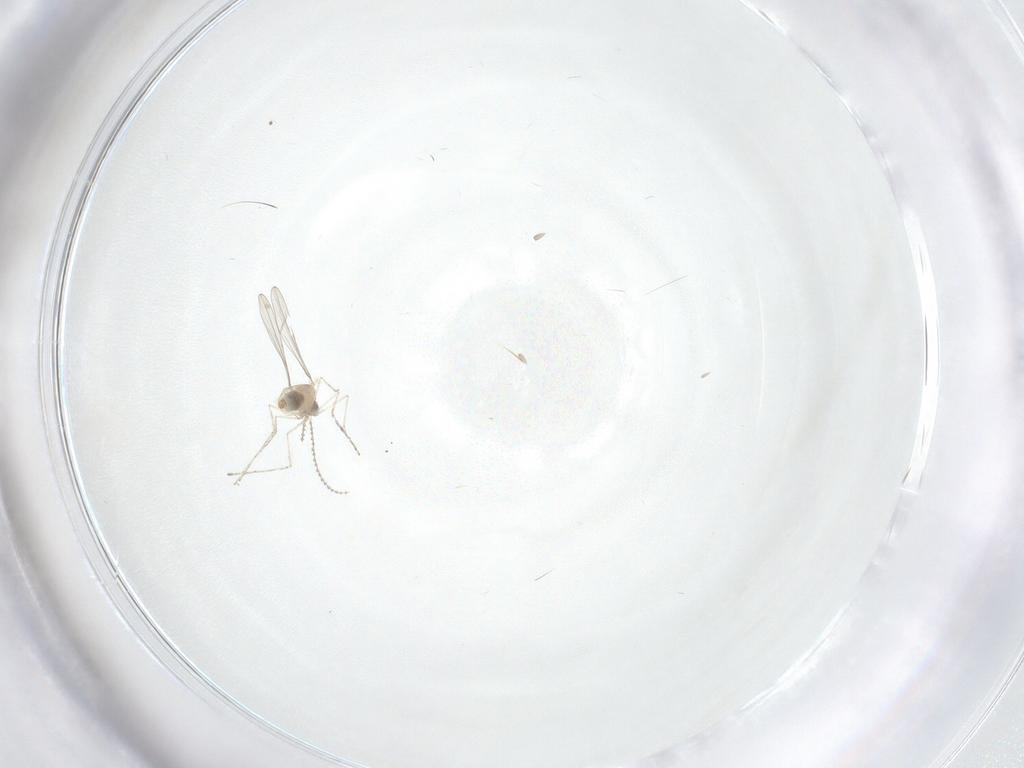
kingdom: Animalia
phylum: Arthropoda
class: Insecta
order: Diptera
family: Cecidomyiidae
